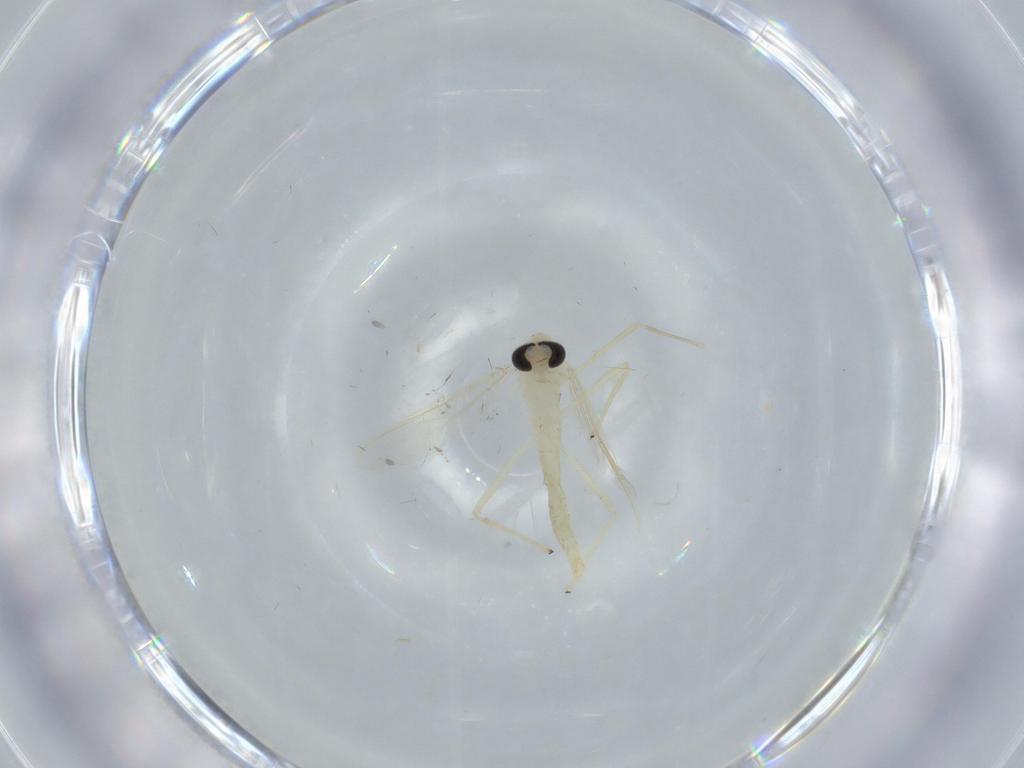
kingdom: Animalia
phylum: Arthropoda
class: Insecta
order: Diptera
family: Sciaridae
